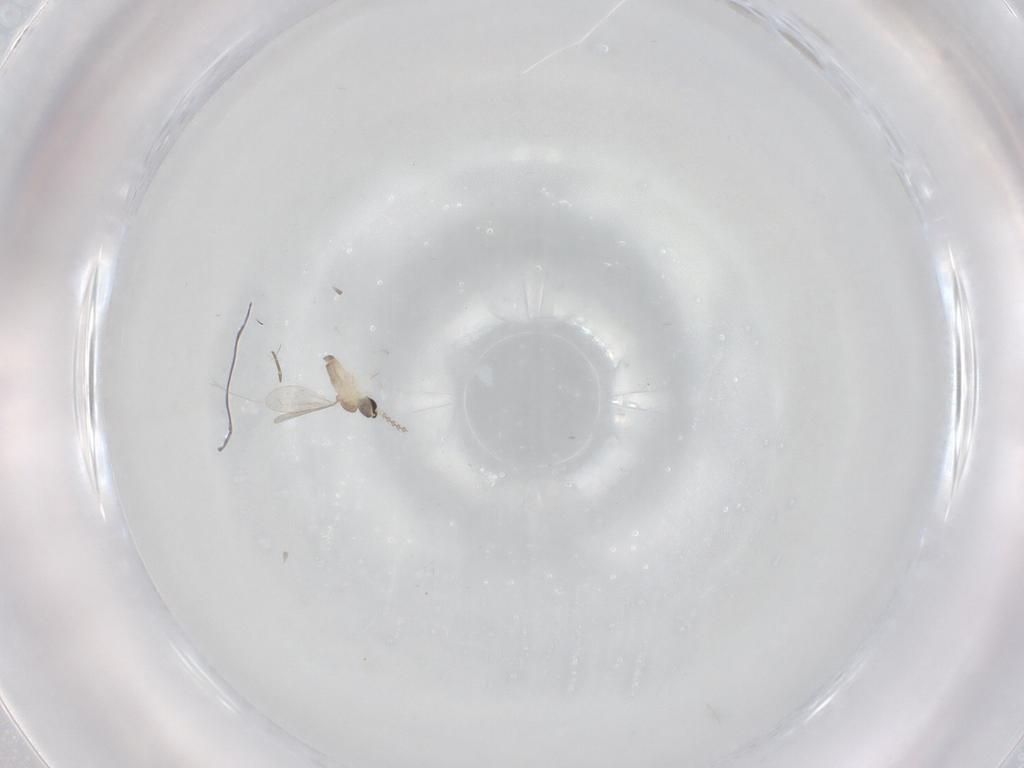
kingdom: Animalia
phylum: Arthropoda
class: Insecta
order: Diptera
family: Cecidomyiidae
